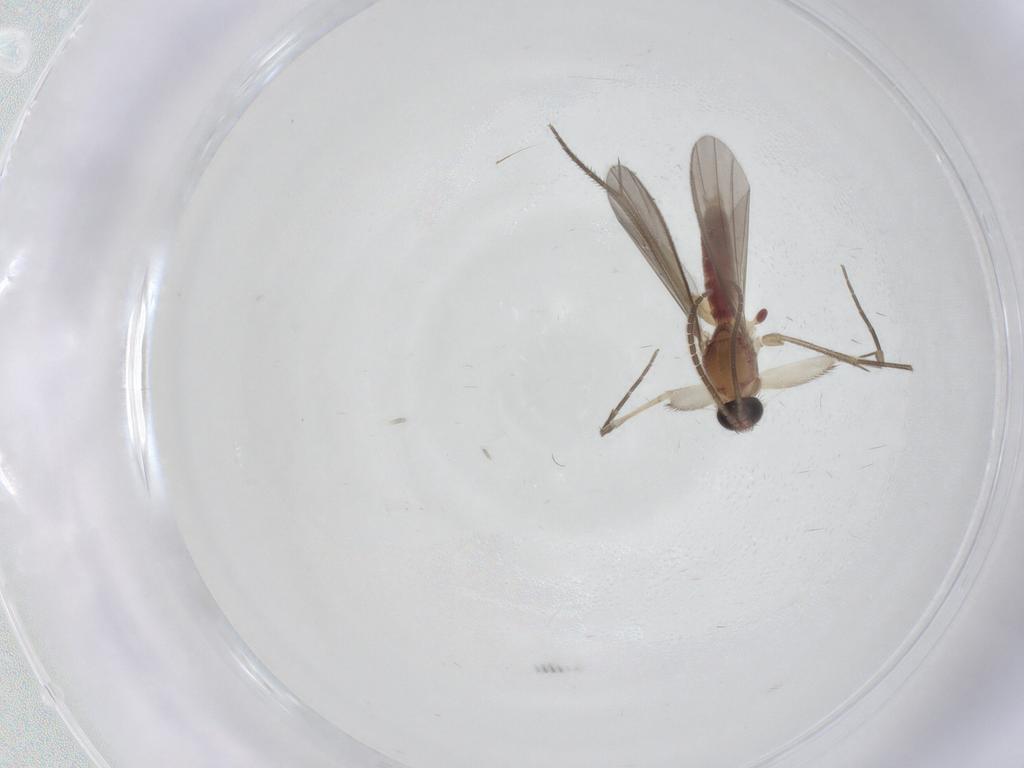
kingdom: Animalia
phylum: Arthropoda
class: Insecta
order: Diptera
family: Mycetophilidae
